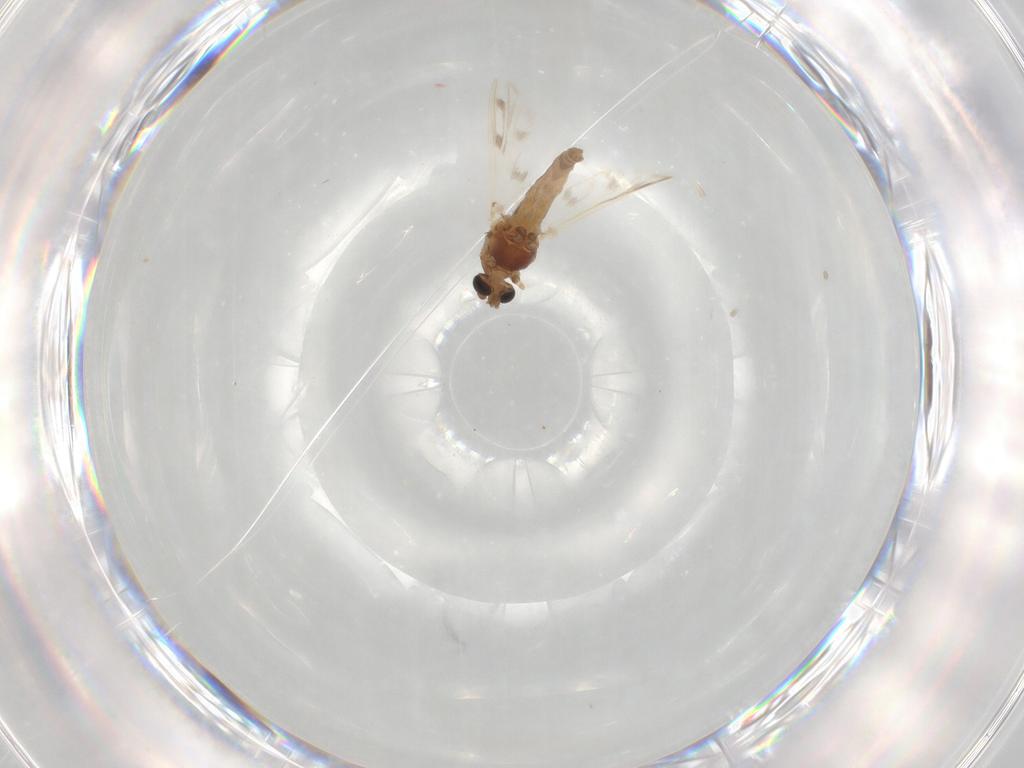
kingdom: Animalia
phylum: Arthropoda
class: Insecta
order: Diptera
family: Chironomidae
